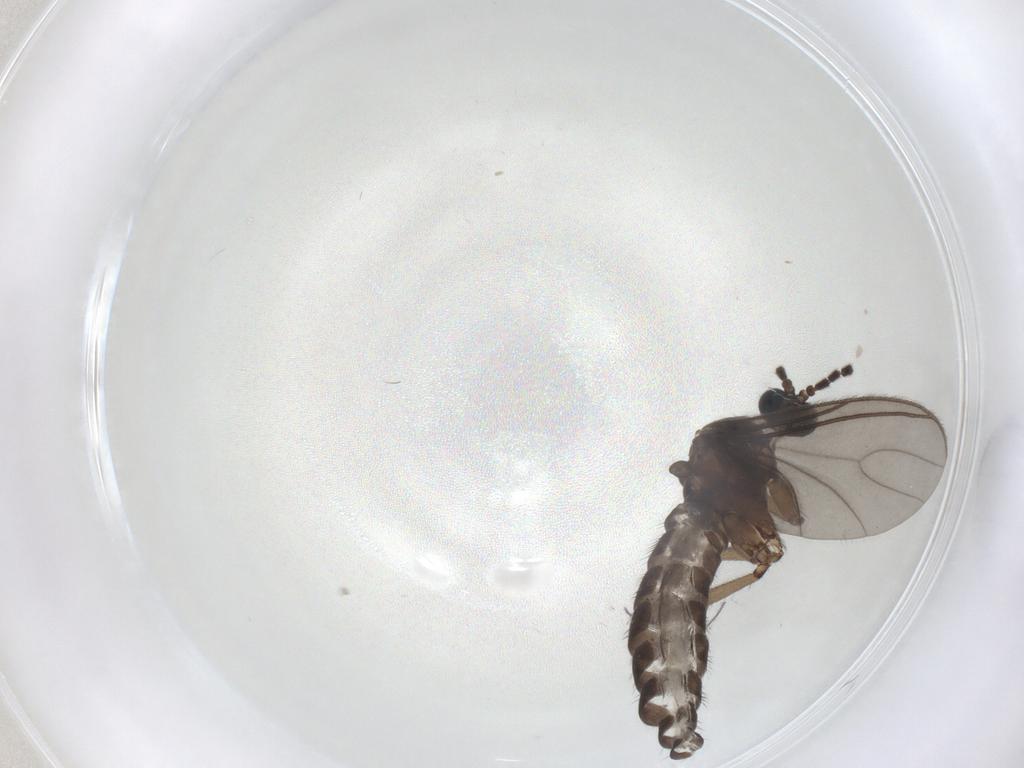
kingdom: Animalia
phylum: Arthropoda
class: Insecta
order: Diptera
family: Sciaridae
